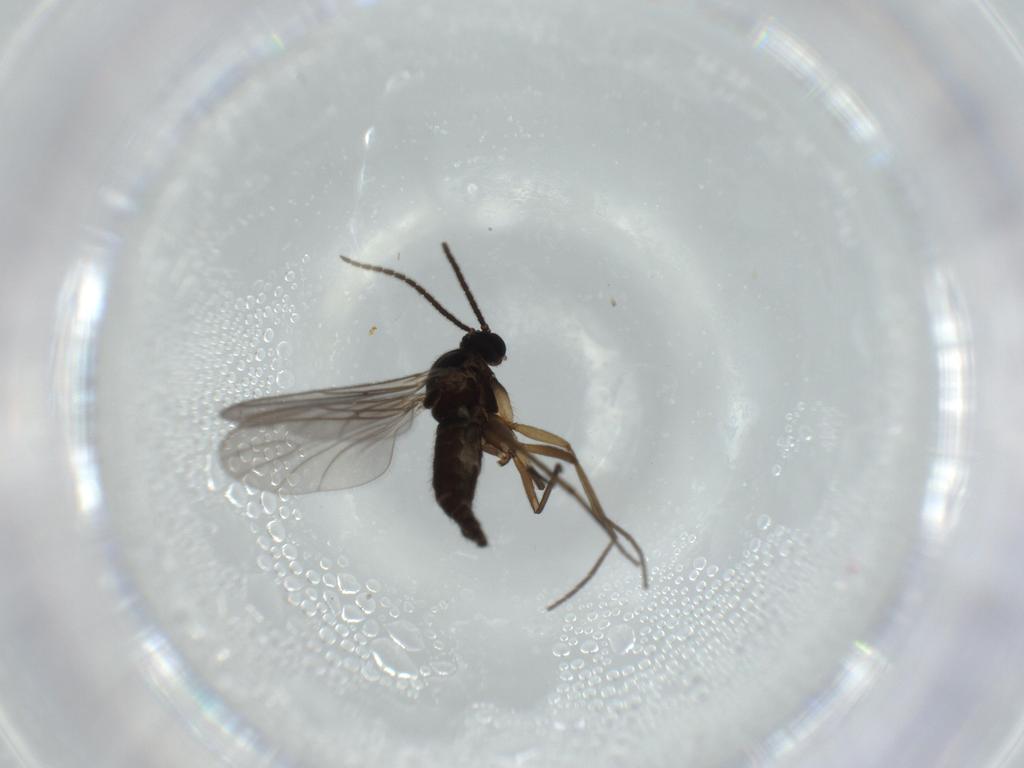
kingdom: Animalia
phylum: Arthropoda
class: Insecta
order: Diptera
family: Sciaridae
